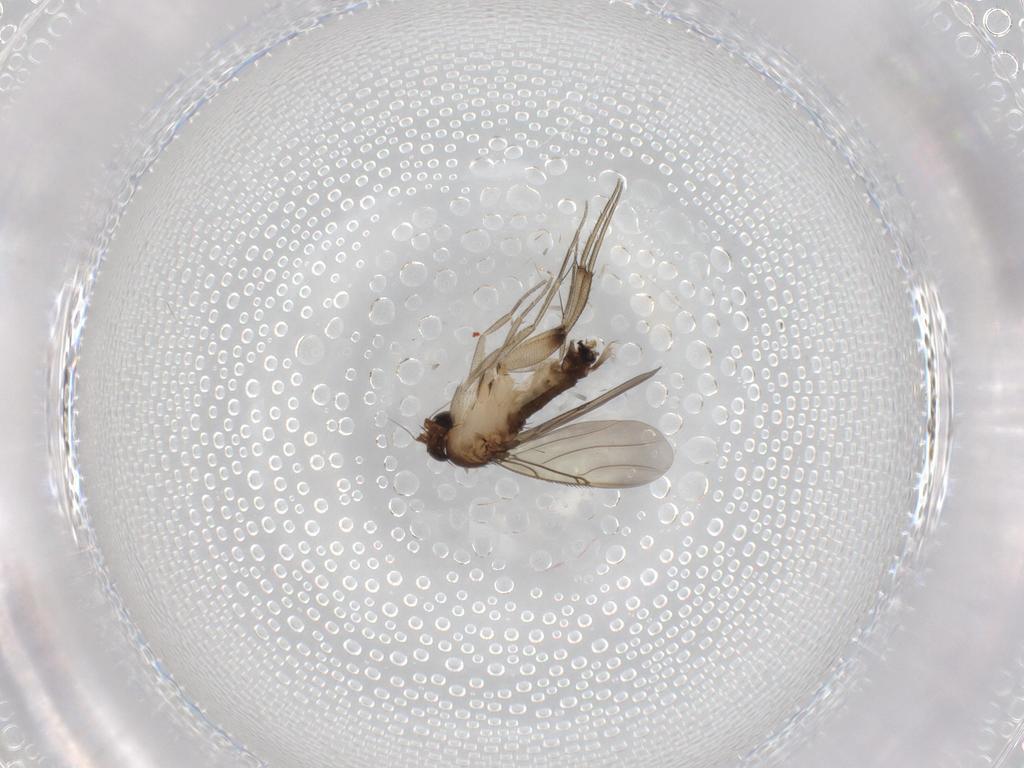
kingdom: Animalia
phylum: Arthropoda
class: Insecta
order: Diptera
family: Phoridae
